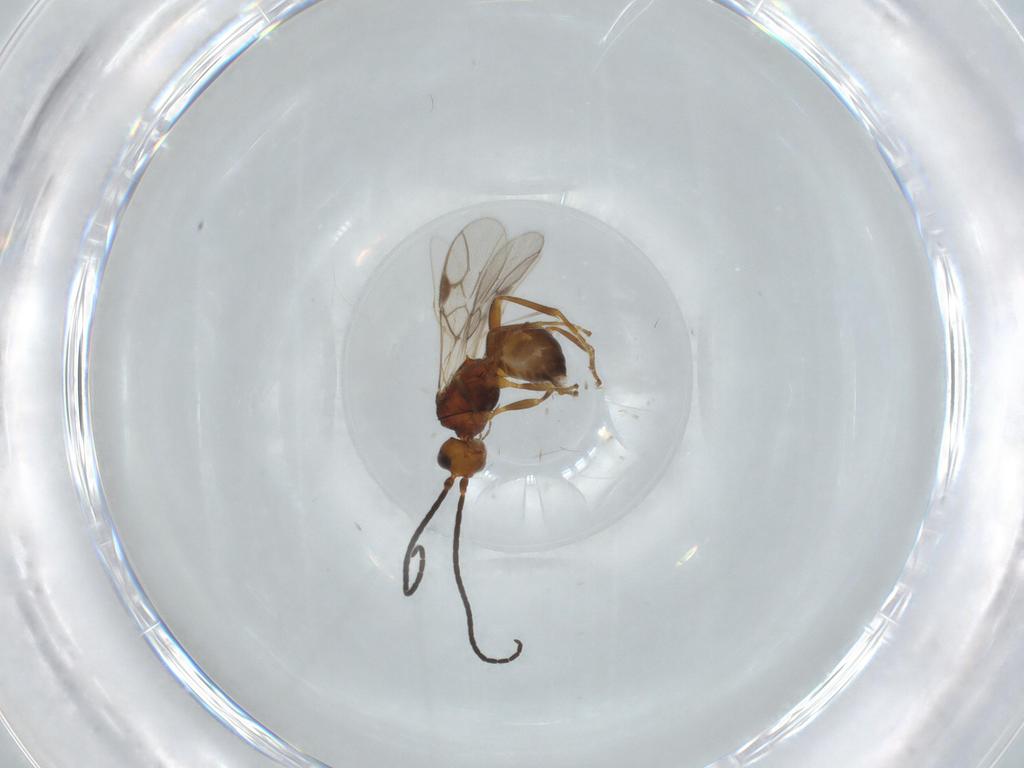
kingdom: Animalia
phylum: Arthropoda
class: Insecta
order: Hymenoptera
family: Braconidae
